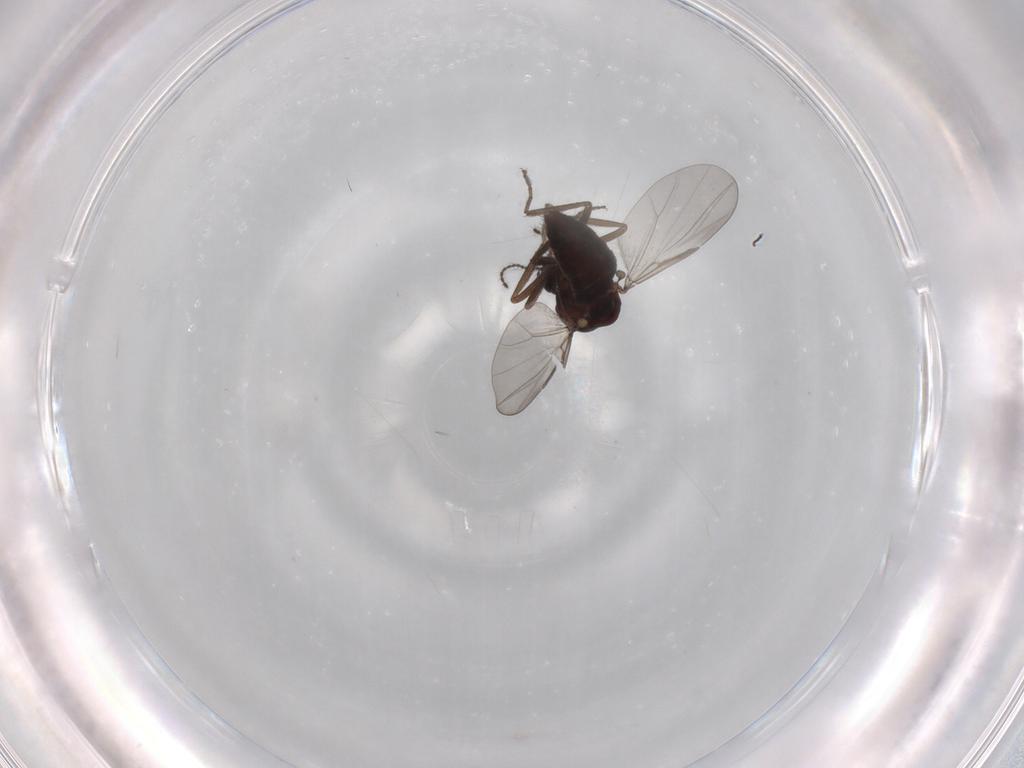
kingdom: Animalia
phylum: Arthropoda
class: Insecta
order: Diptera
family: Ceratopogonidae
